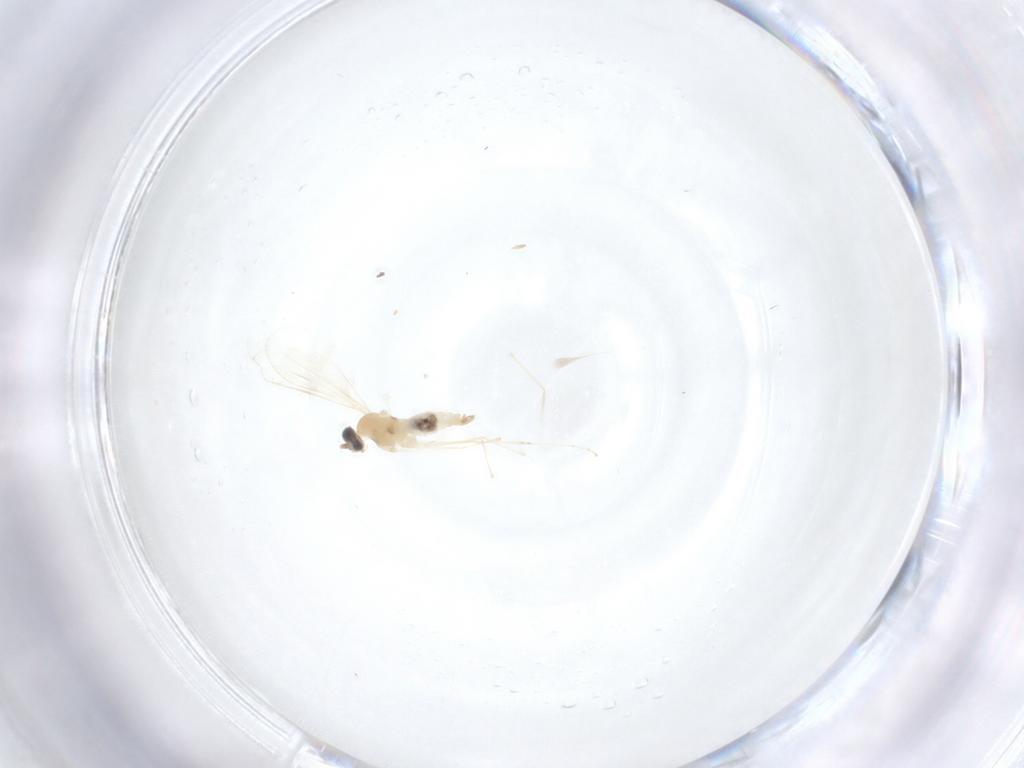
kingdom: Animalia
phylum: Arthropoda
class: Insecta
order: Diptera
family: Cecidomyiidae
